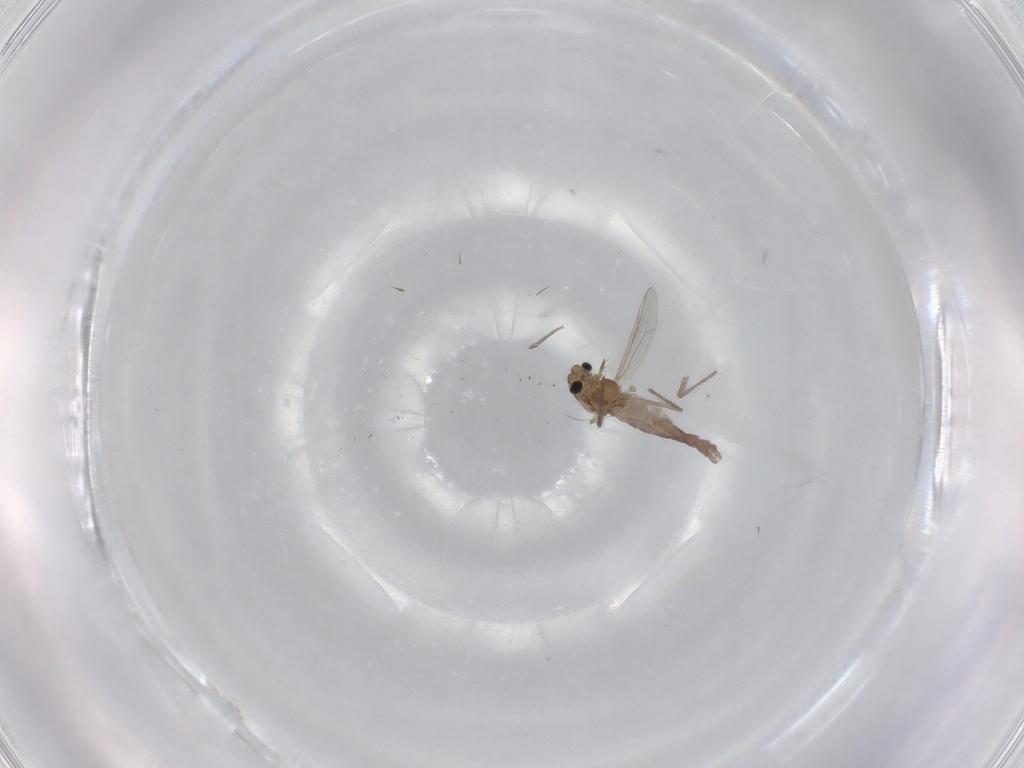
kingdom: Animalia
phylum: Arthropoda
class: Insecta
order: Diptera
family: Chironomidae
